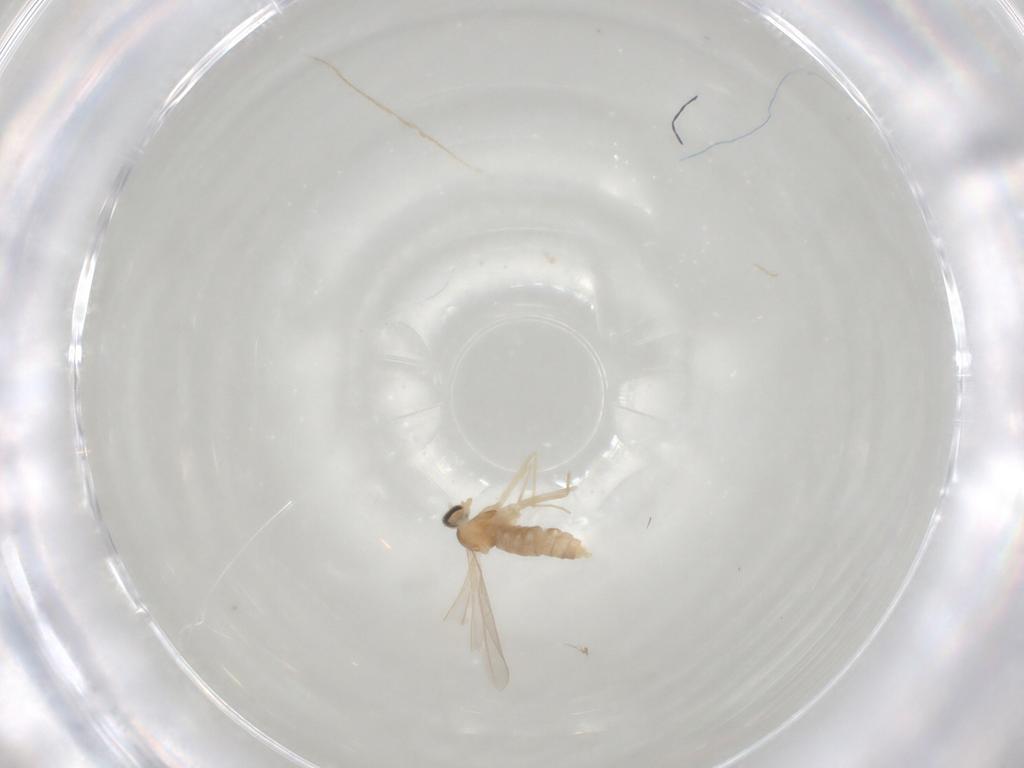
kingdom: Animalia
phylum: Arthropoda
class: Insecta
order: Diptera
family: Cecidomyiidae
